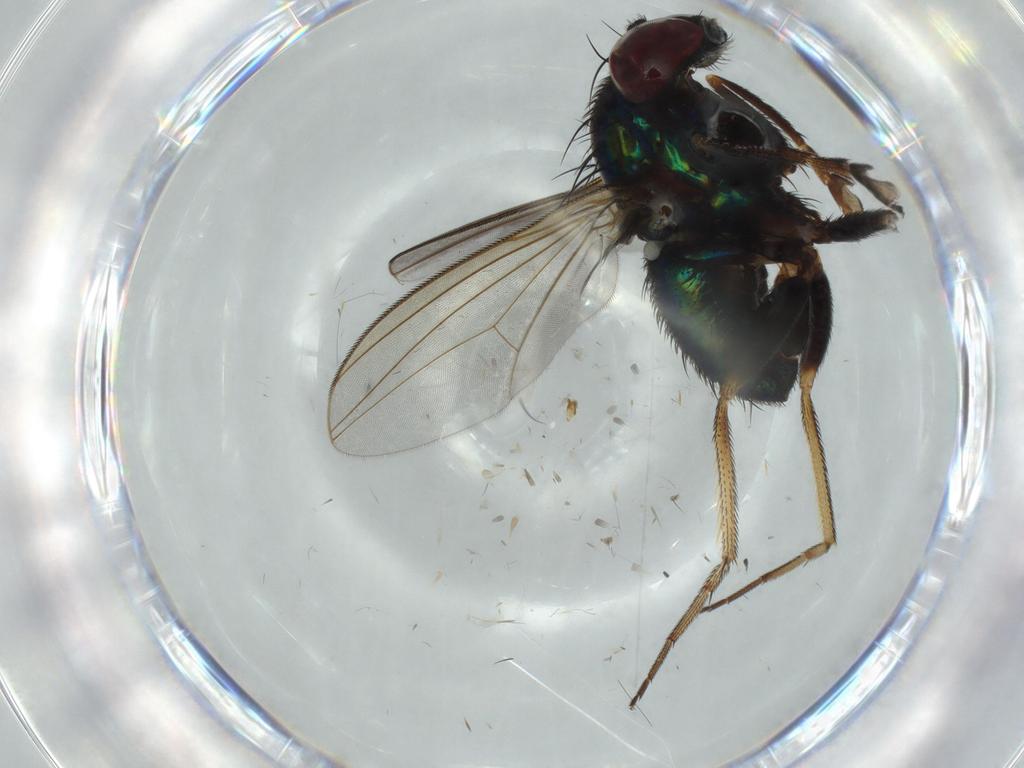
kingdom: Animalia
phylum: Arthropoda
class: Insecta
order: Diptera
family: Dolichopodidae
